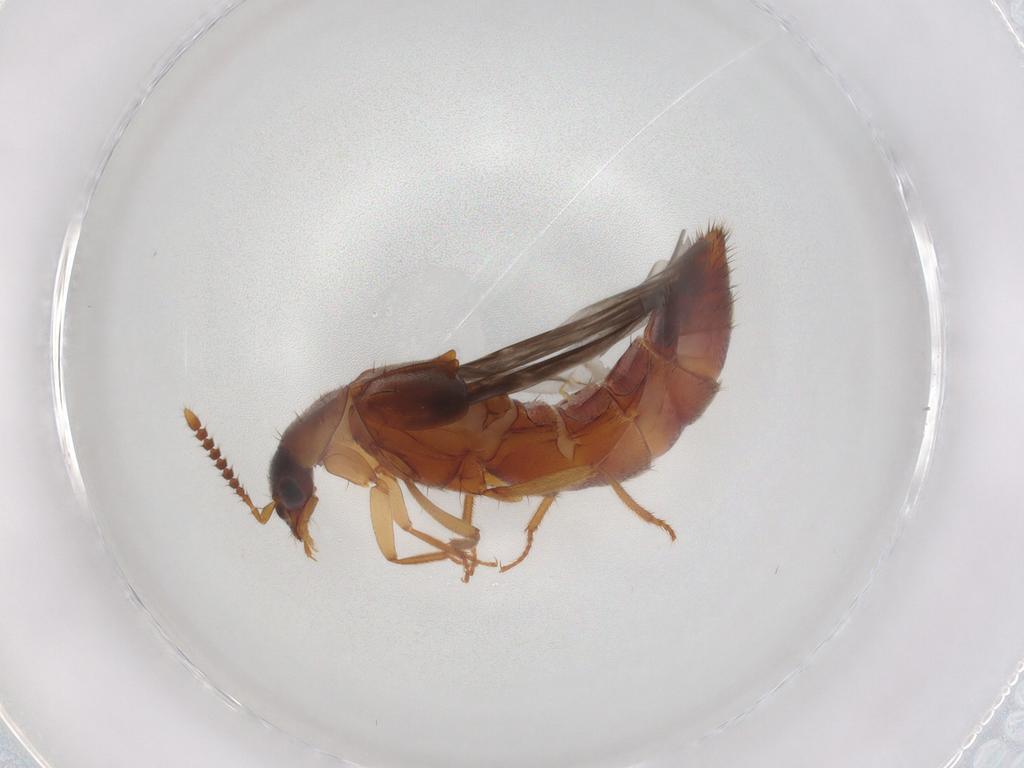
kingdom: Animalia
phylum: Arthropoda
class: Insecta
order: Coleoptera
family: Staphylinidae
